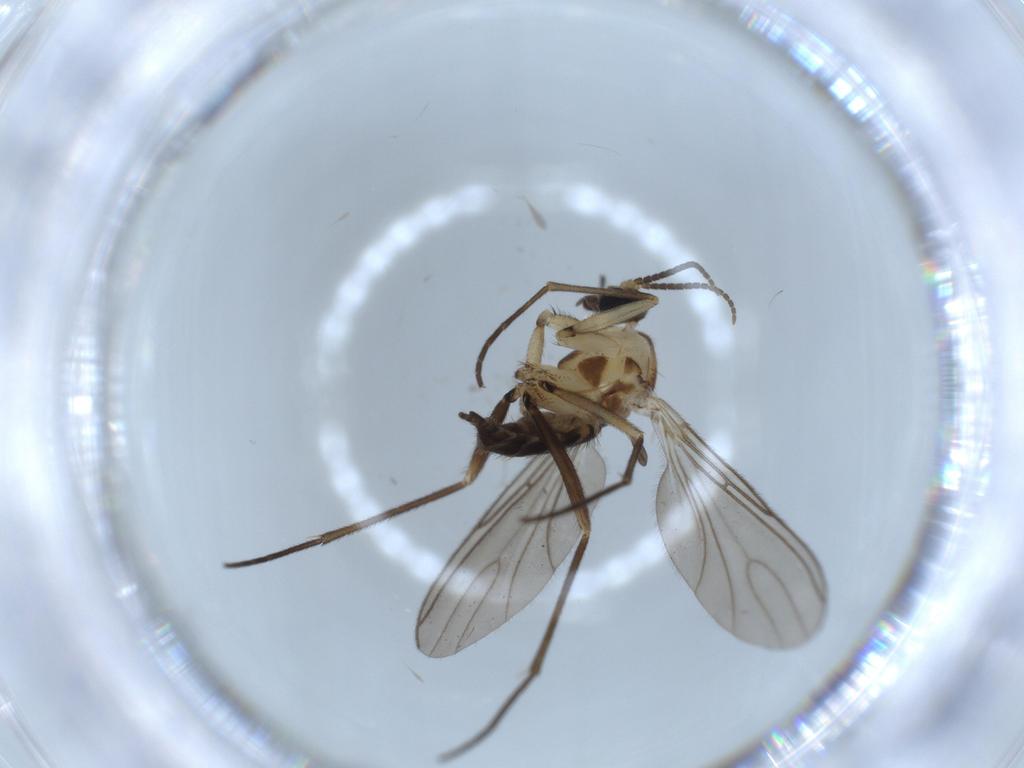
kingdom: Animalia
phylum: Arthropoda
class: Insecta
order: Diptera
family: Sciaridae
